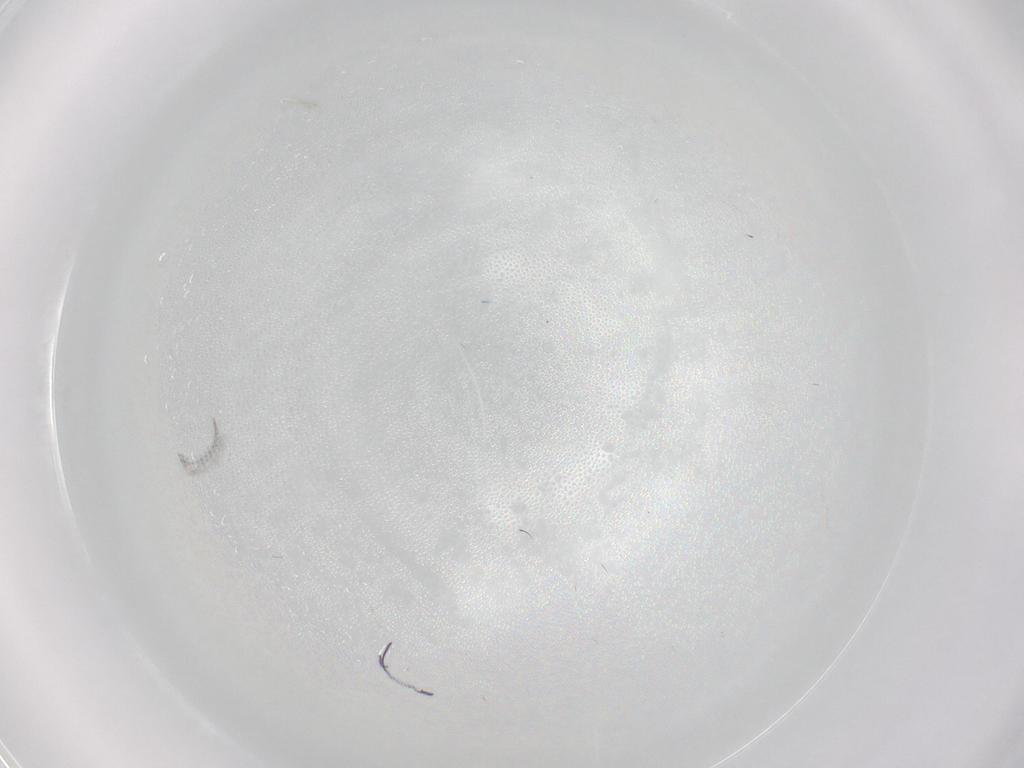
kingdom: Animalia
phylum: Arthropoda
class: Insecta
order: Diptera
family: Cecidomyiidae
